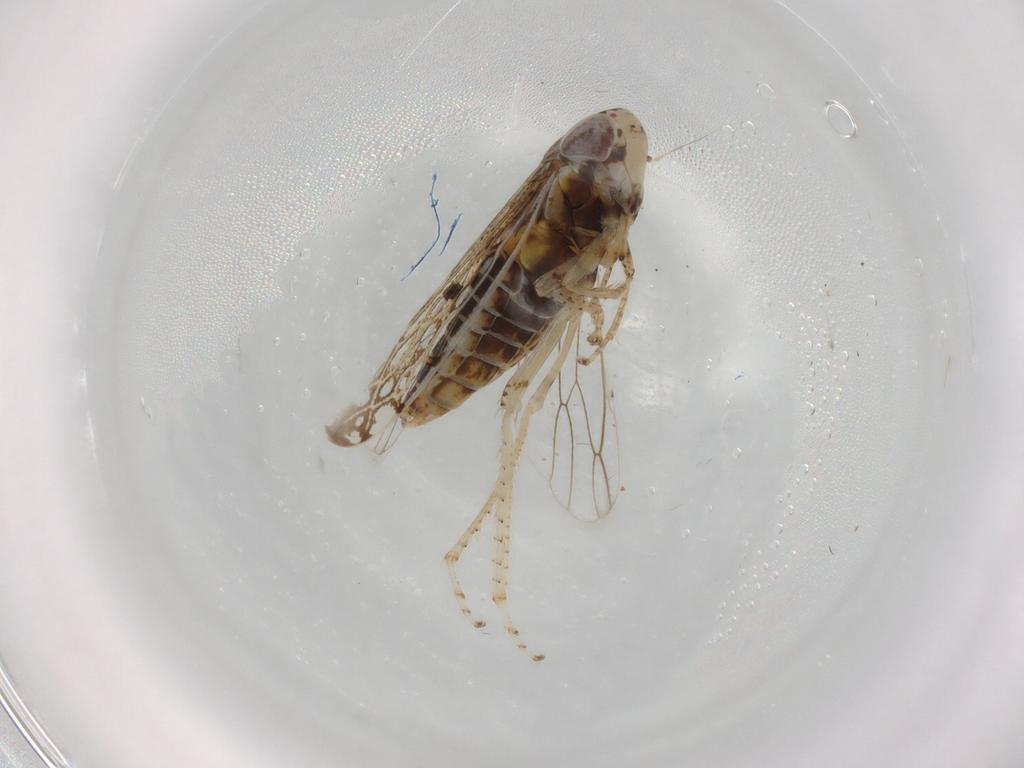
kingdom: Animalia
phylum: Arthropoda
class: Insecta
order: Hemiptera
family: Cicadellidae
